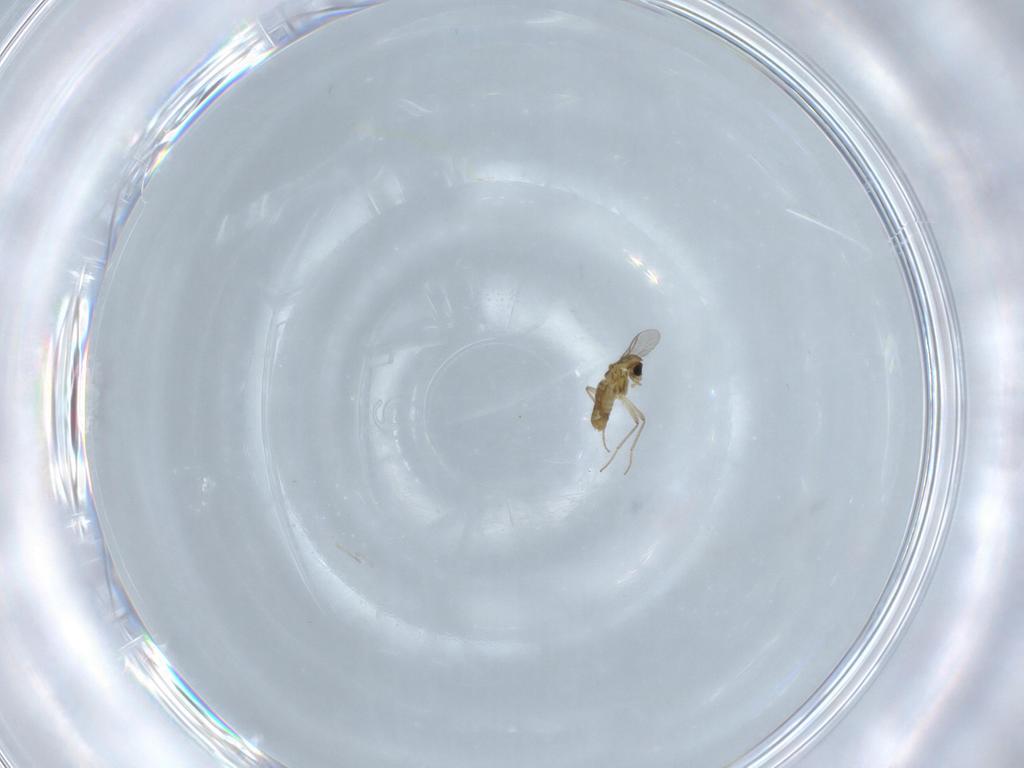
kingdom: Animalia
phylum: Arthropoda
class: Insecta
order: Diptera
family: Chironomidae
